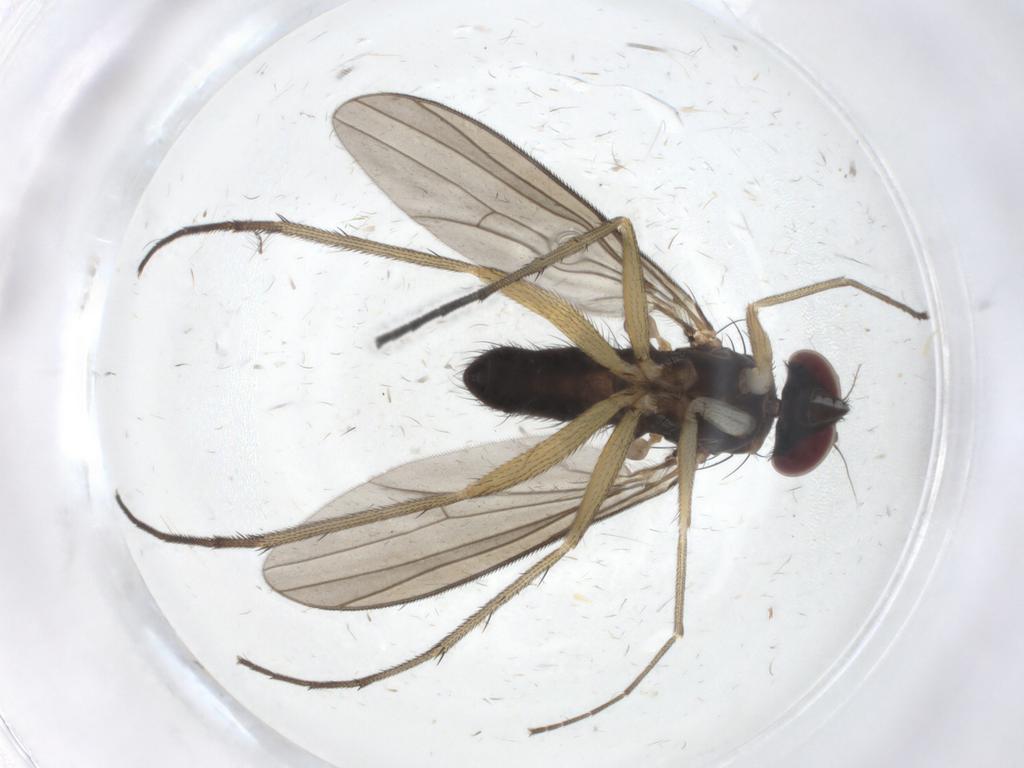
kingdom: Animalia
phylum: Arthropoda
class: Insecta
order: Diptera
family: Dolichopodidae
